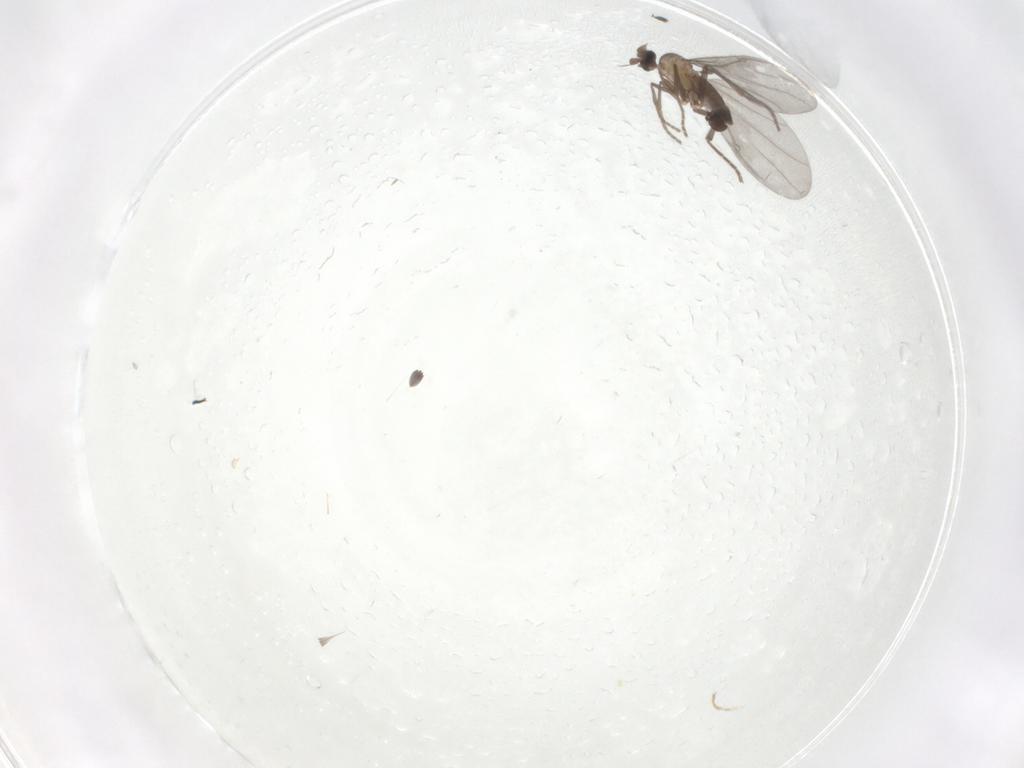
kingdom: Animalia
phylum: Arthropoda
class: Insecta
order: Diptera
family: Phoridae
